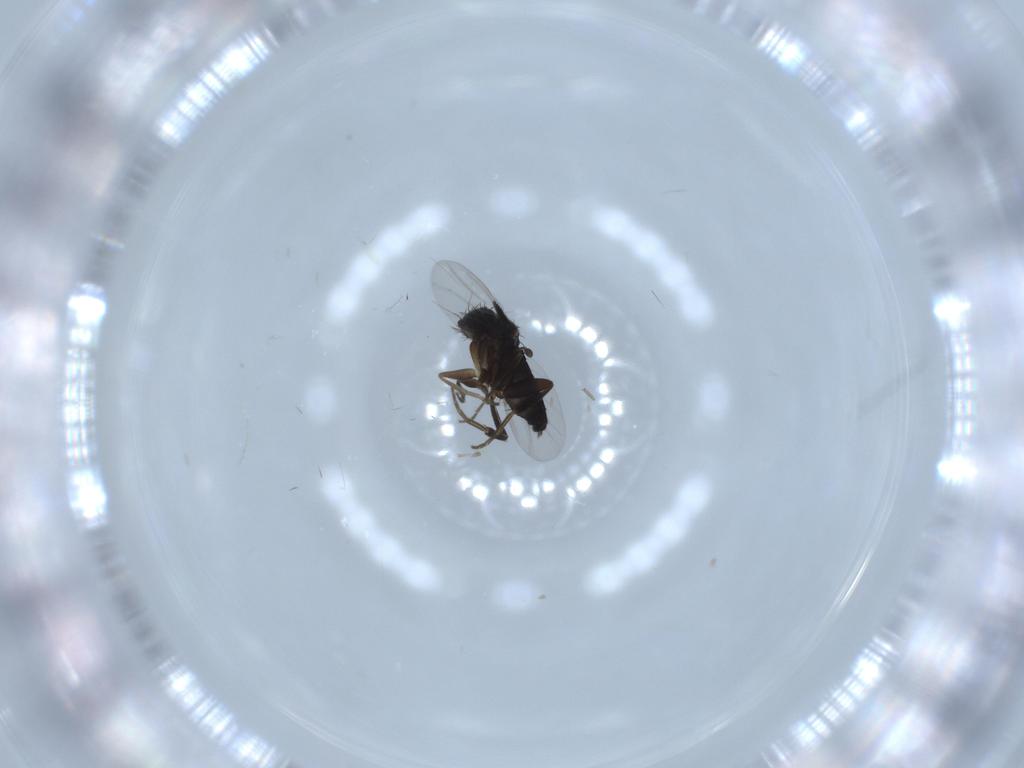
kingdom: Animalia
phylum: Arthropoda
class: Insecta
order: Diptera
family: Phoridae
